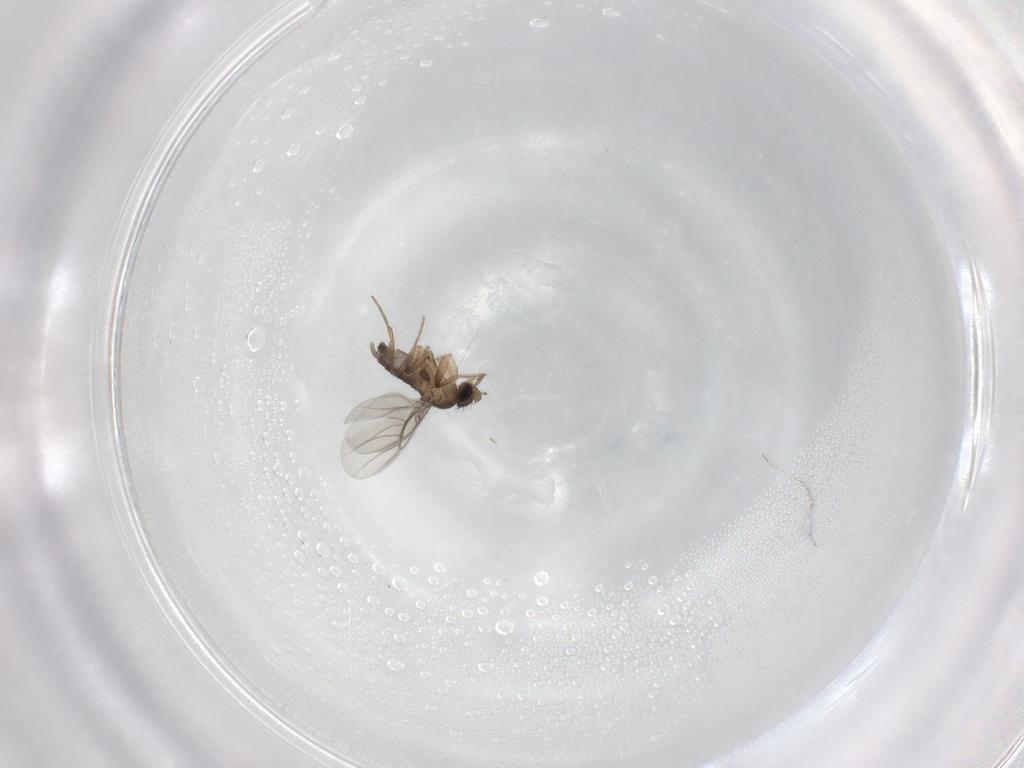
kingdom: Animalia
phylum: Arthropoda
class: Insecta
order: Diptera
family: Phoridae
